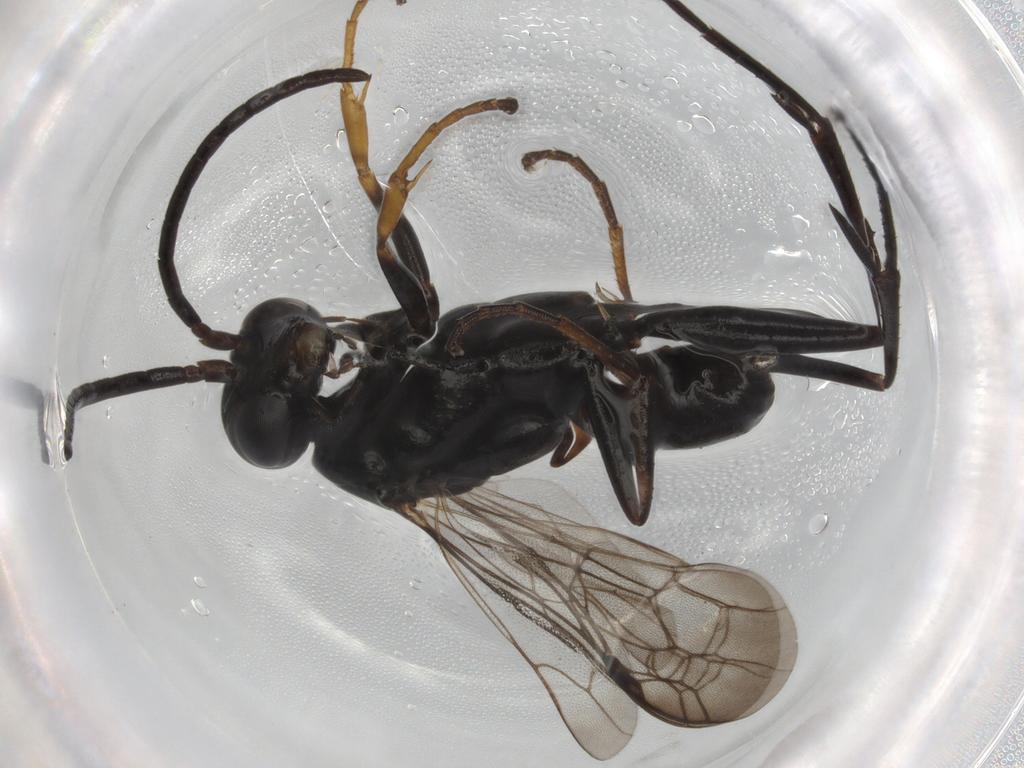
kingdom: Animalia
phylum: Arthropoda
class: Insecta
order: Hymenoptera
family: Pompilidae
